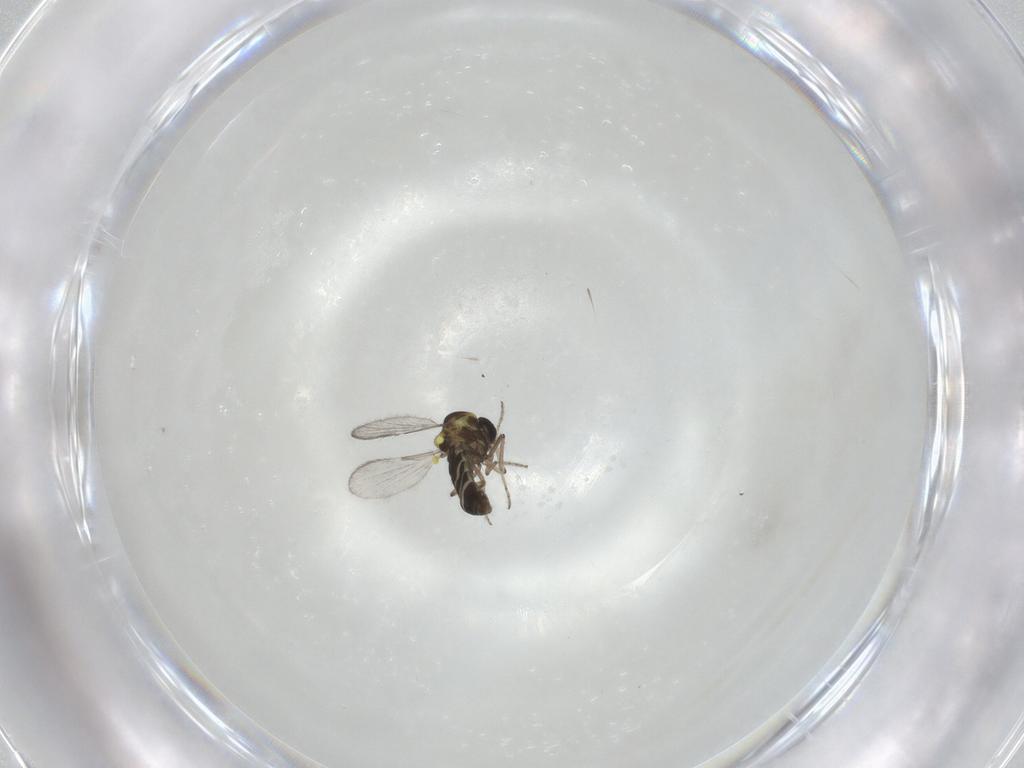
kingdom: Animalia
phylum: Arthropoda
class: Insecta
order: Diptera
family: Ceratopogonidae
